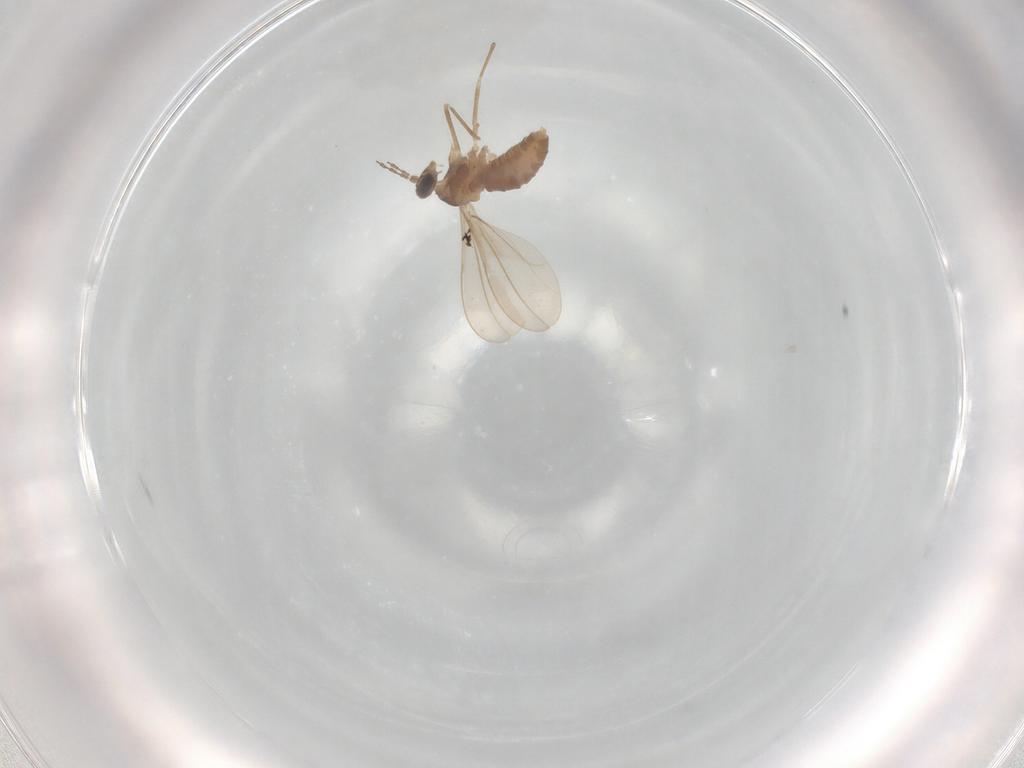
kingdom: Animalia
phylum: Arthropoda
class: Insecta
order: Diptera
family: Cecidomyiidae
